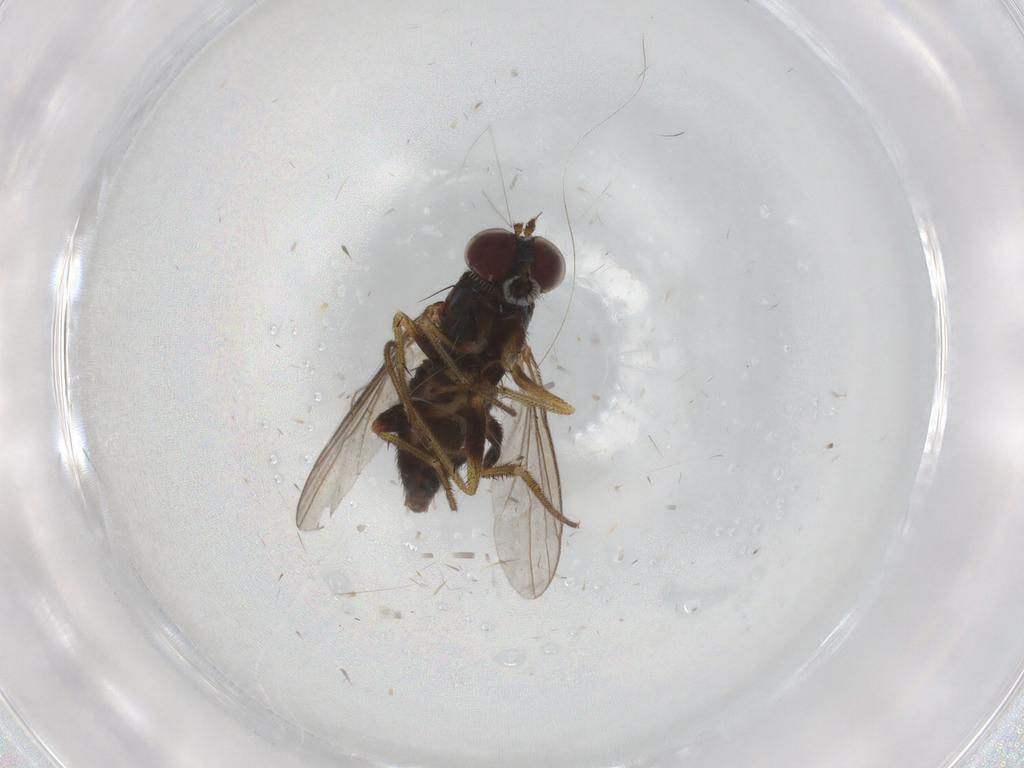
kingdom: Animalia
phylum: Arthropoda
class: Insecta
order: Diptera
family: Dolichopodidae
